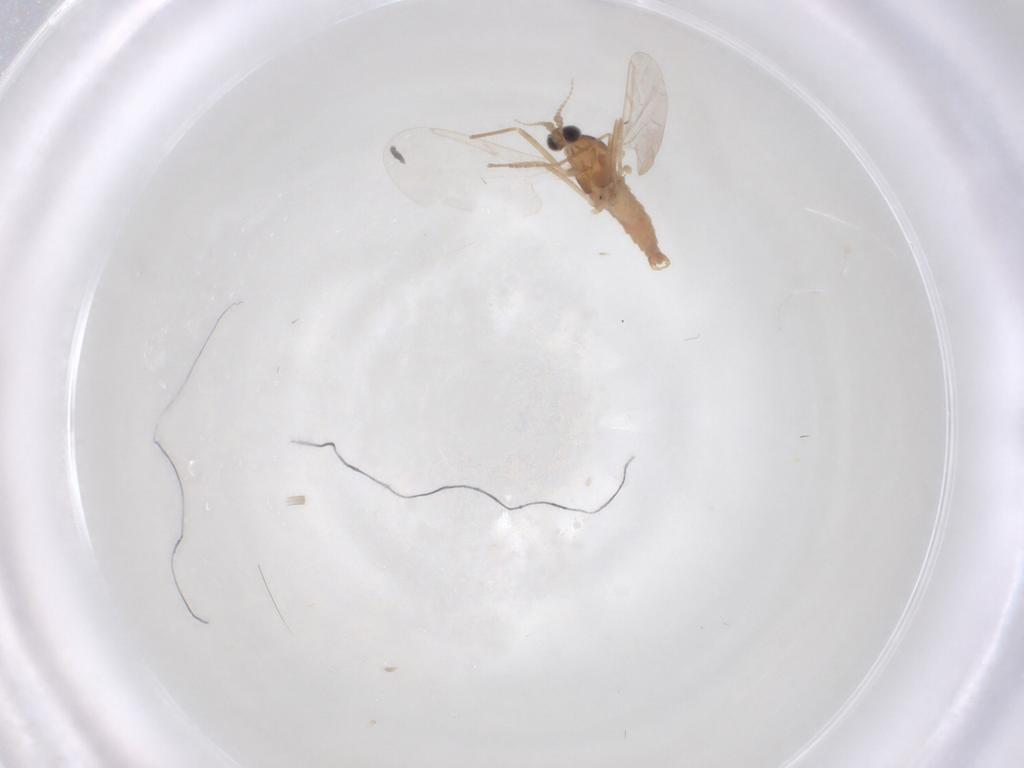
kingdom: Animalia
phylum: Arthropoda
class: Insecta
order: Diptera
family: Cecidomyiidae
